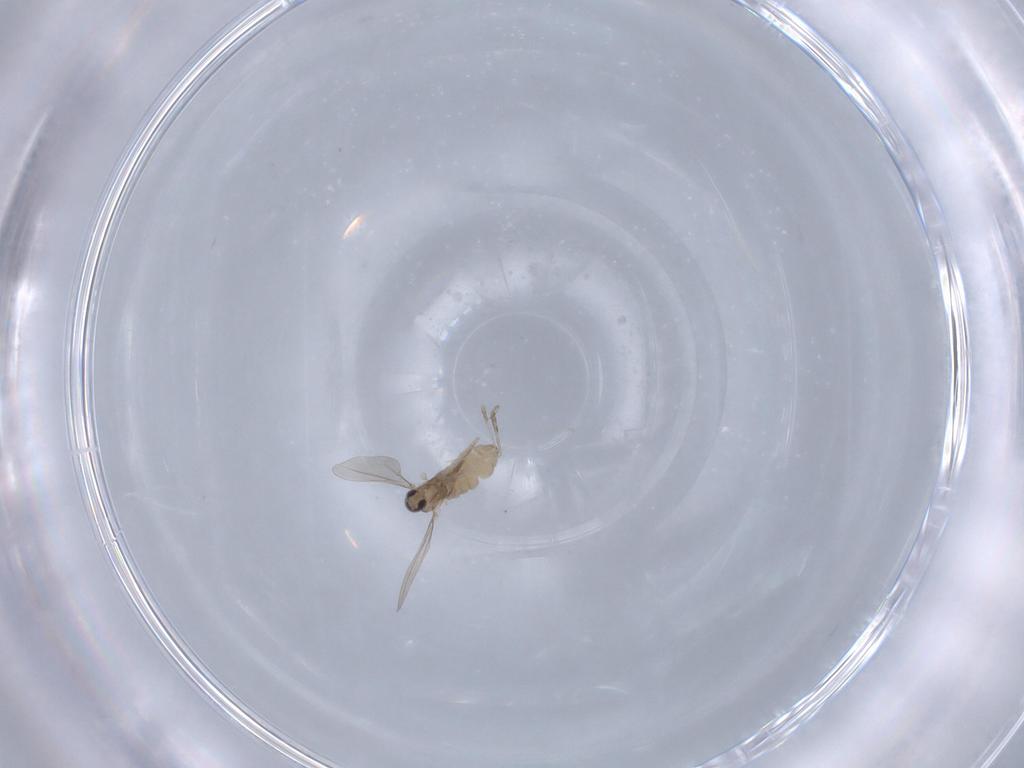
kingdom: Animalia
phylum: Arthropoda
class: Insecta
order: Diptera
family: Cecidomyiidae
